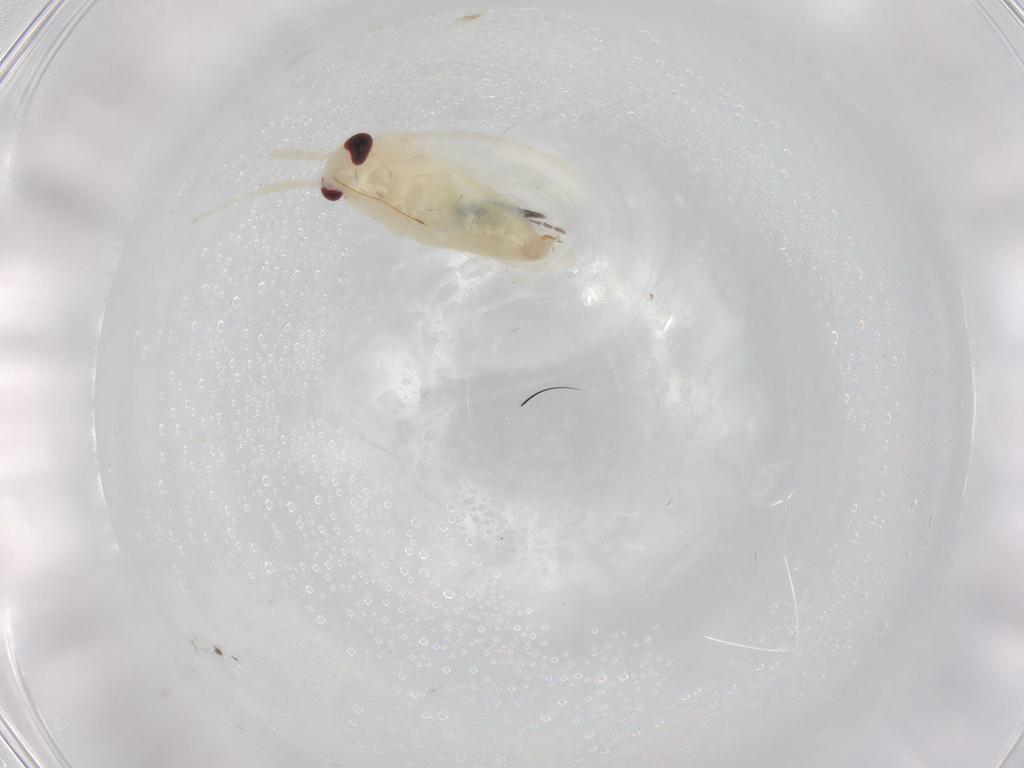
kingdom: Animalia
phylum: Arthropoda
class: Insecta
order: Hemiptera
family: Miridae
